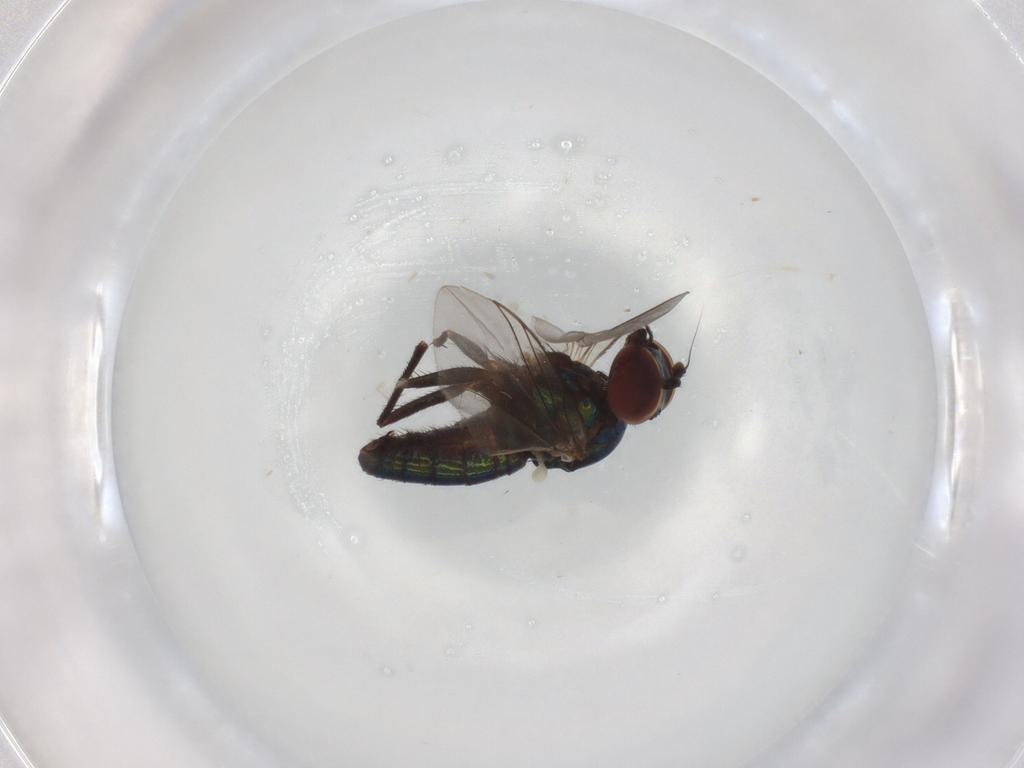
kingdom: Animalia
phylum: Arthropoda
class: Insecta
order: Diptera
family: Dolichopodidae
